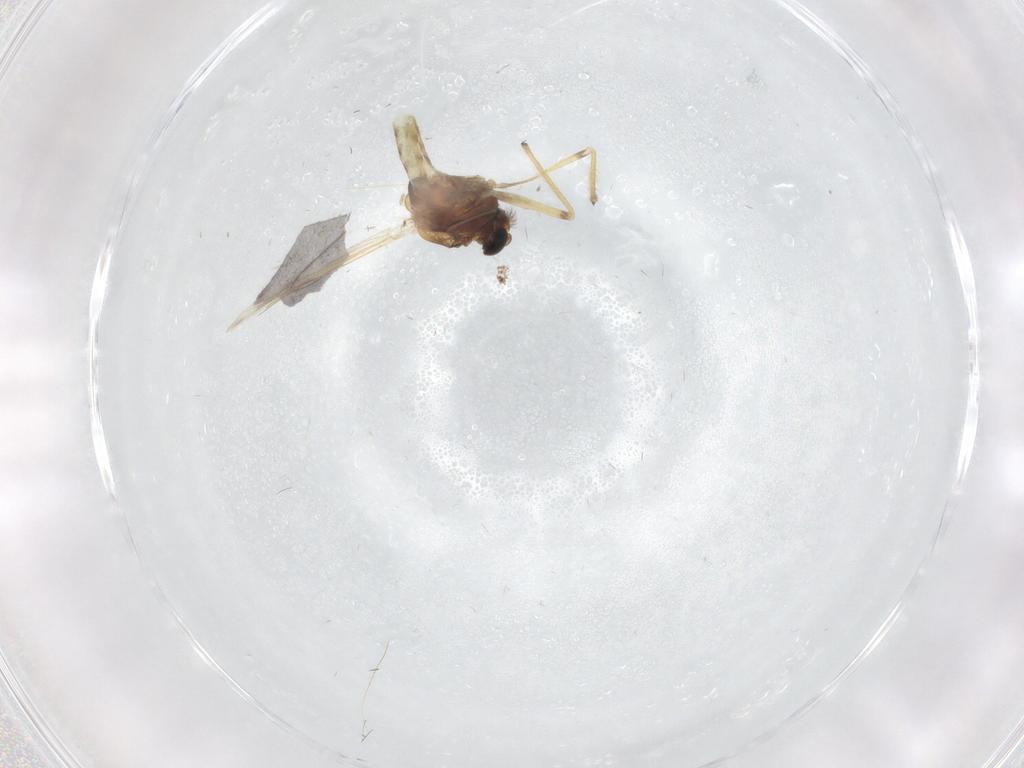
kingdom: Animalia
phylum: Arthropoda
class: Insecta
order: Diptera
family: Chironomidae
